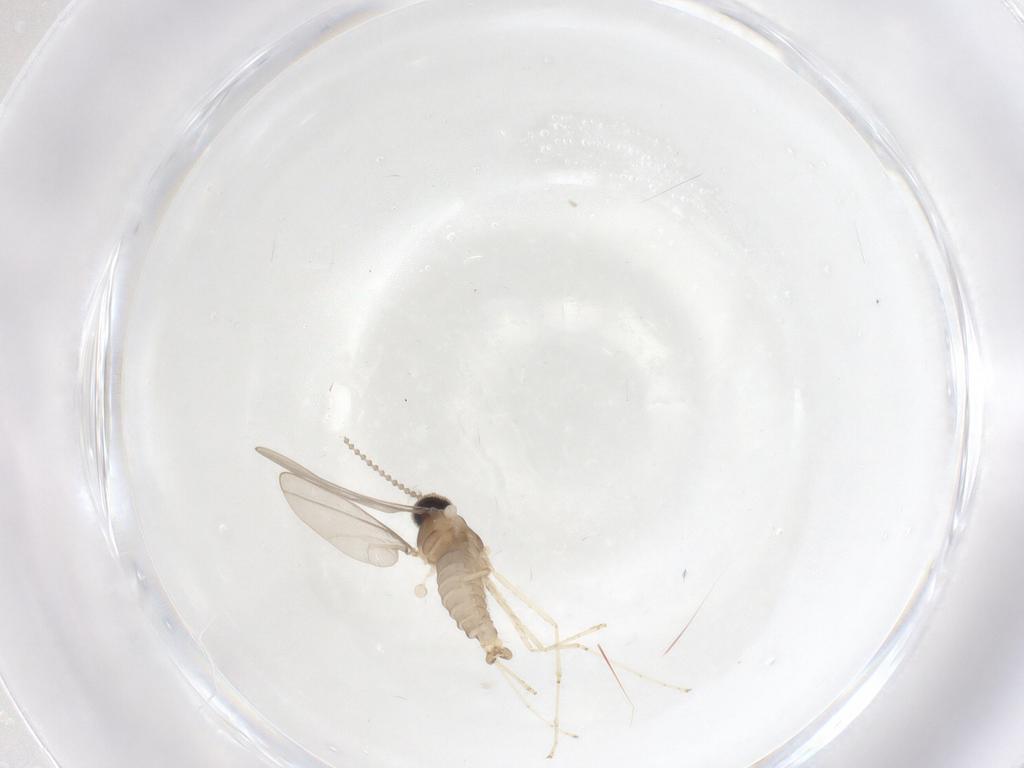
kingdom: Animalia
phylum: Arthropoda
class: Insecta
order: Diptera
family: Cecidomyiidae
